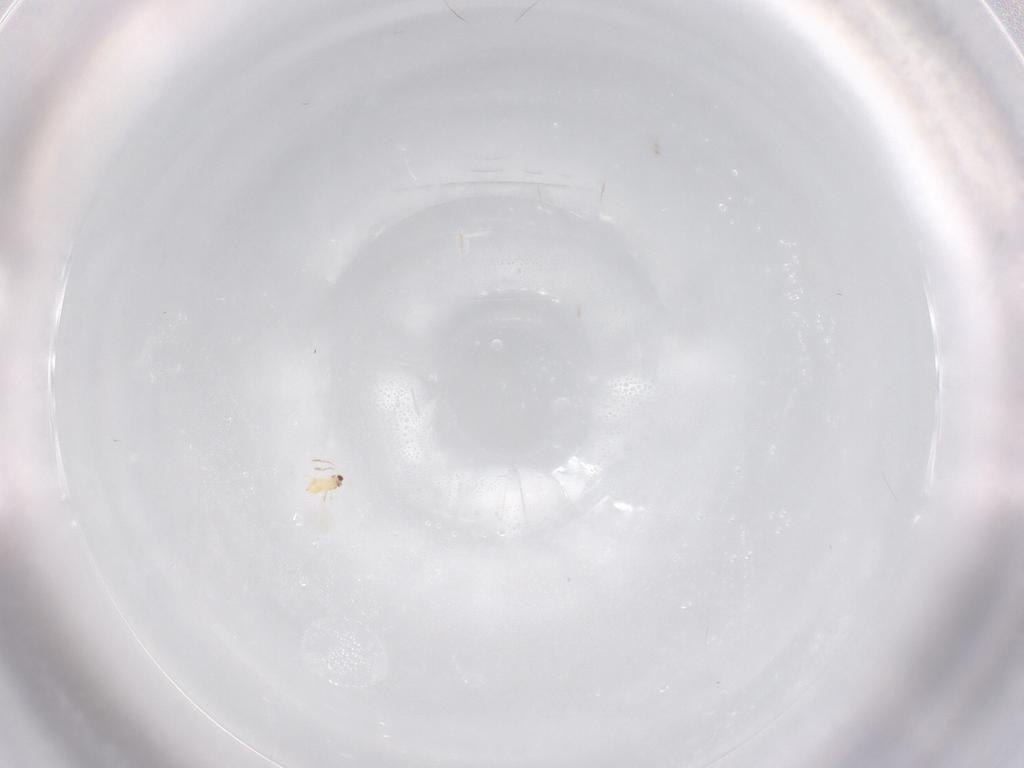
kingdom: Animalia
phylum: Arthropoda
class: Insecta
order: Hymenoptera
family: Mymaridae
